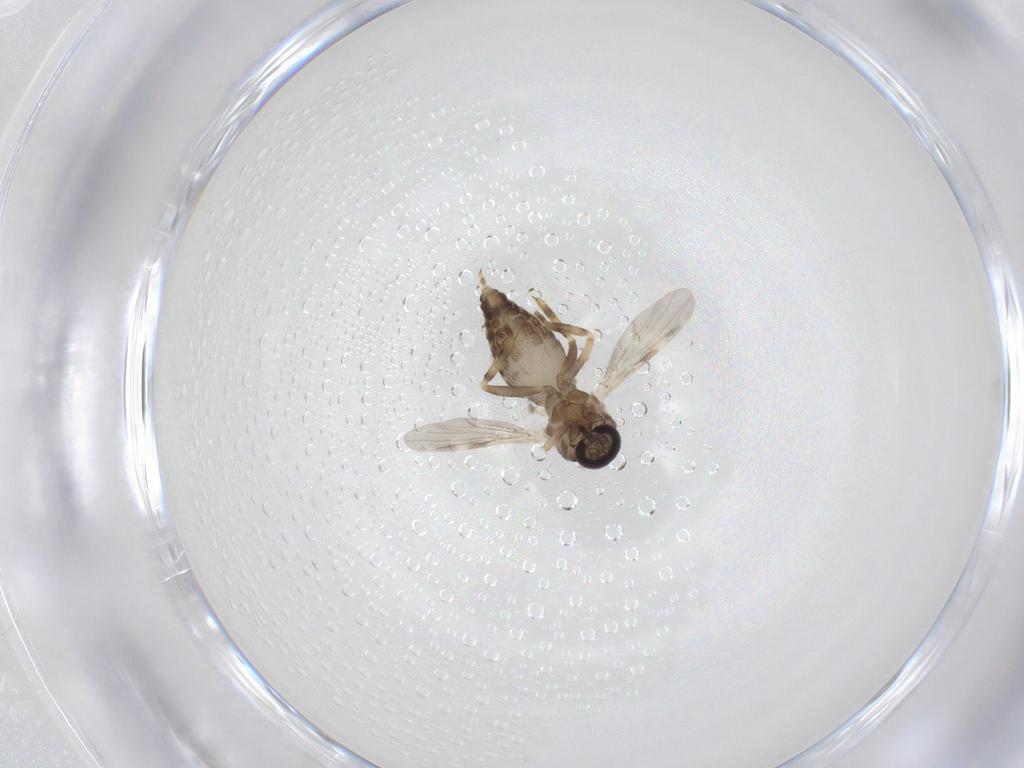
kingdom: Animalia
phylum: Arthropoda
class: Insecta
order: Diptera
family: Ceratopogonidae
